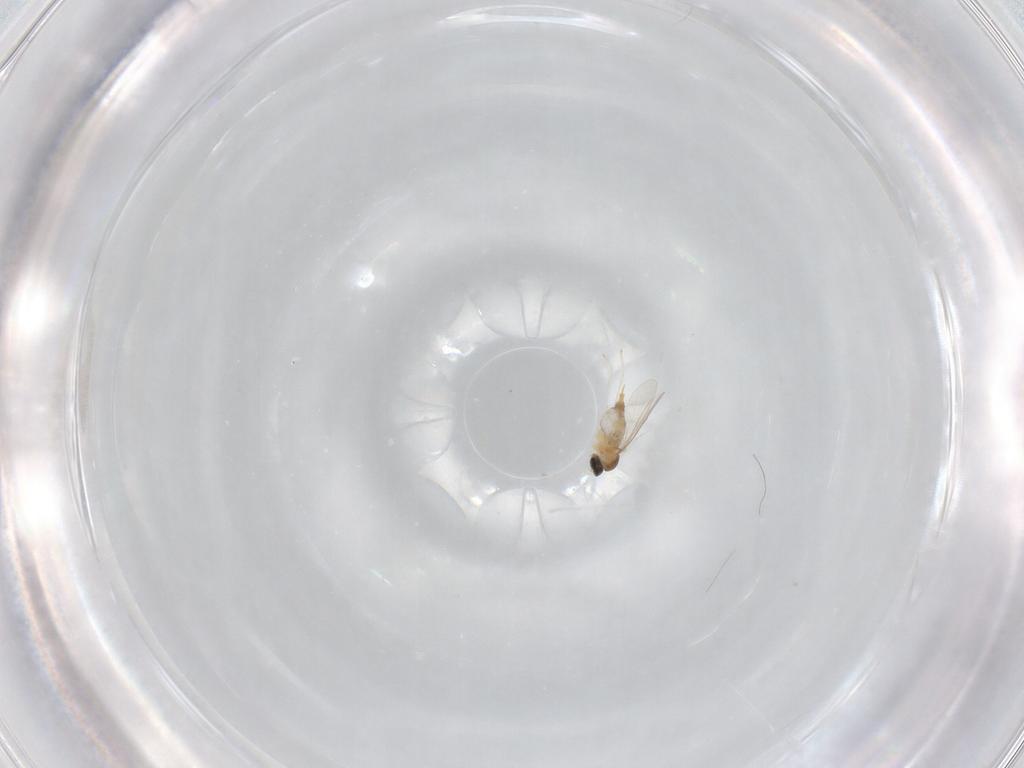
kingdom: Animalia
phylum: Arthropoda
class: Insecta
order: Diptera
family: Cecidomyiidae
